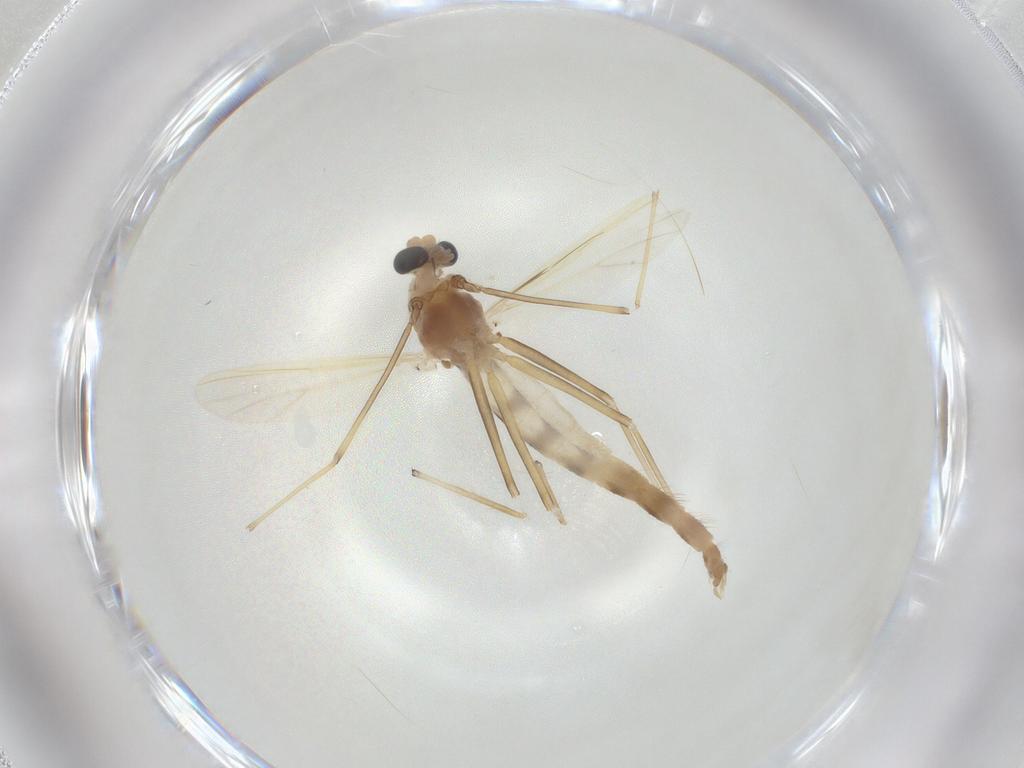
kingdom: Animalia
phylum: Arthropoda
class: Insecta
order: Diptera
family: Chironomidae
